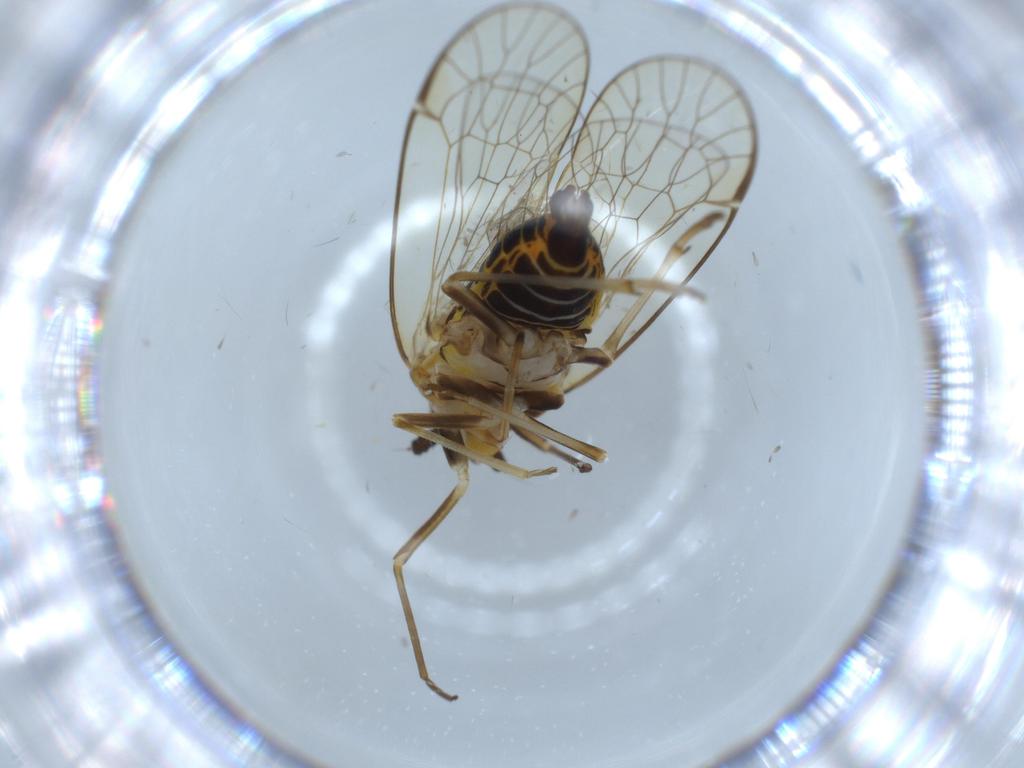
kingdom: Animalia
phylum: Arthropoda
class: Insecta
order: Hemiptera
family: Kinnaridae
